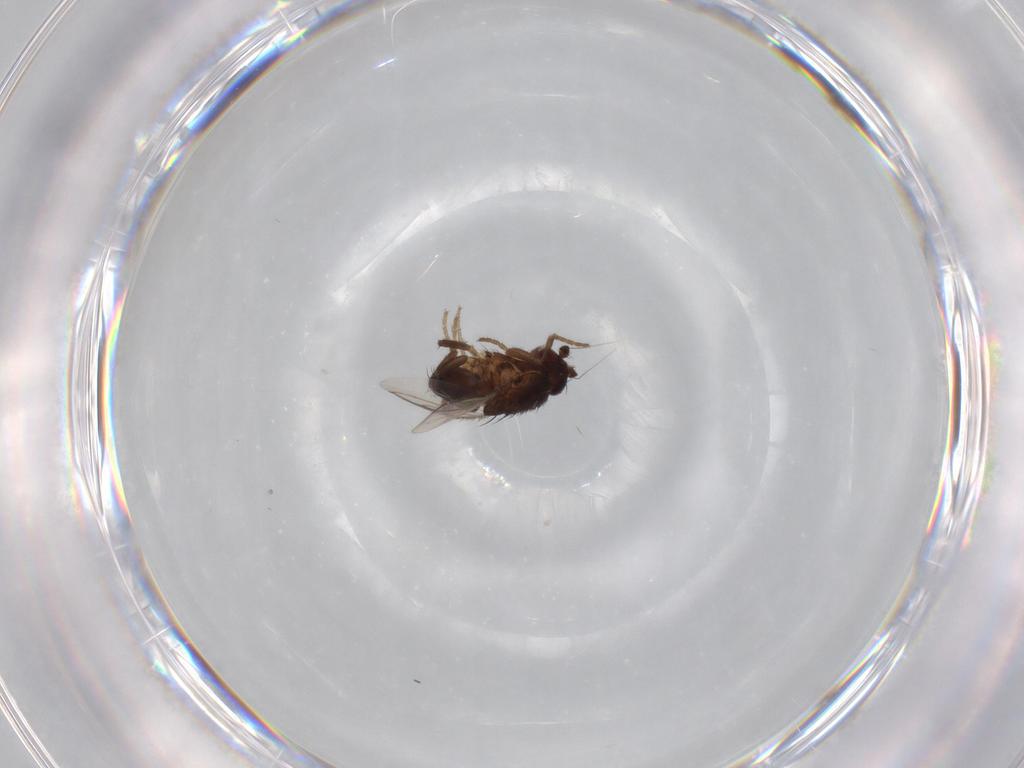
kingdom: Animalia
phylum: Arthropoda
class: Insecta
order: Diptera
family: Sphaeroceridae
